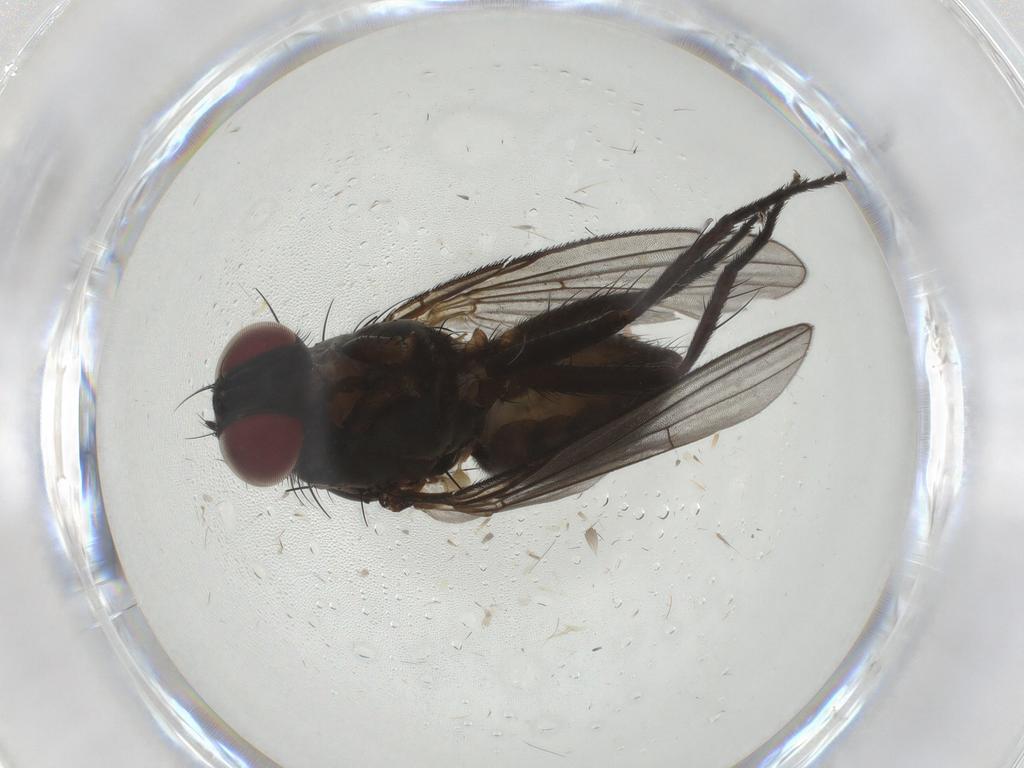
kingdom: Animalia
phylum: Arthropoda
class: Insecta
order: Diptera
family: Muscidae
